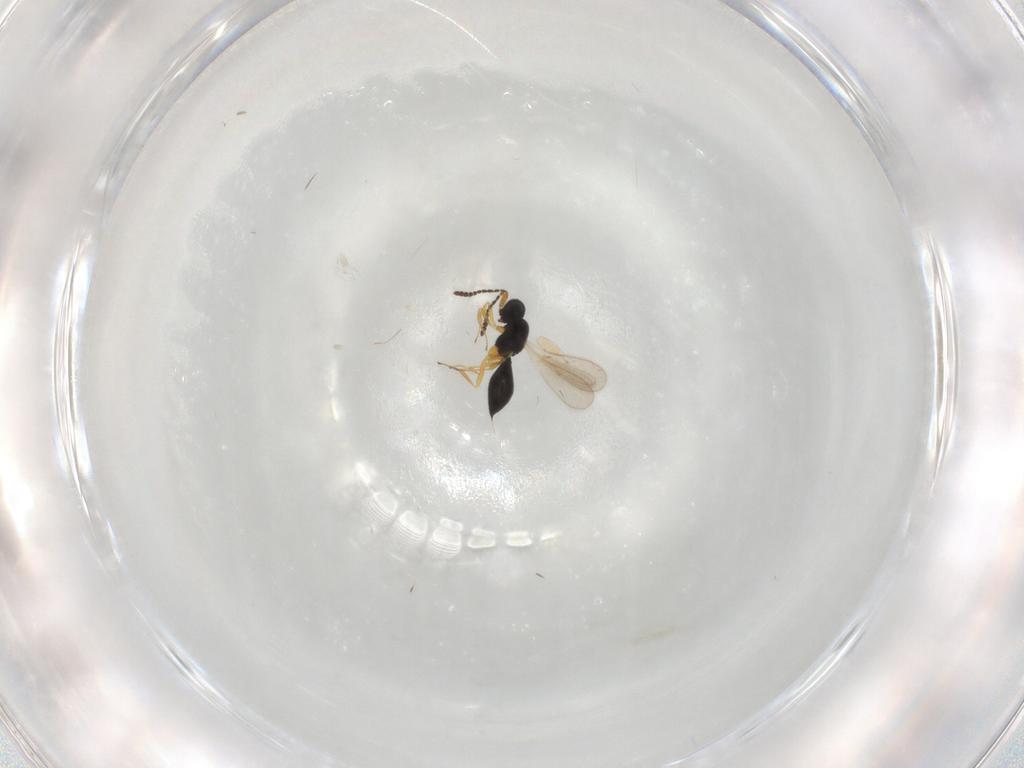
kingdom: Animalia
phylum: Arthropoda
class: Insecta
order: Hymenoptera
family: Scelionidae
